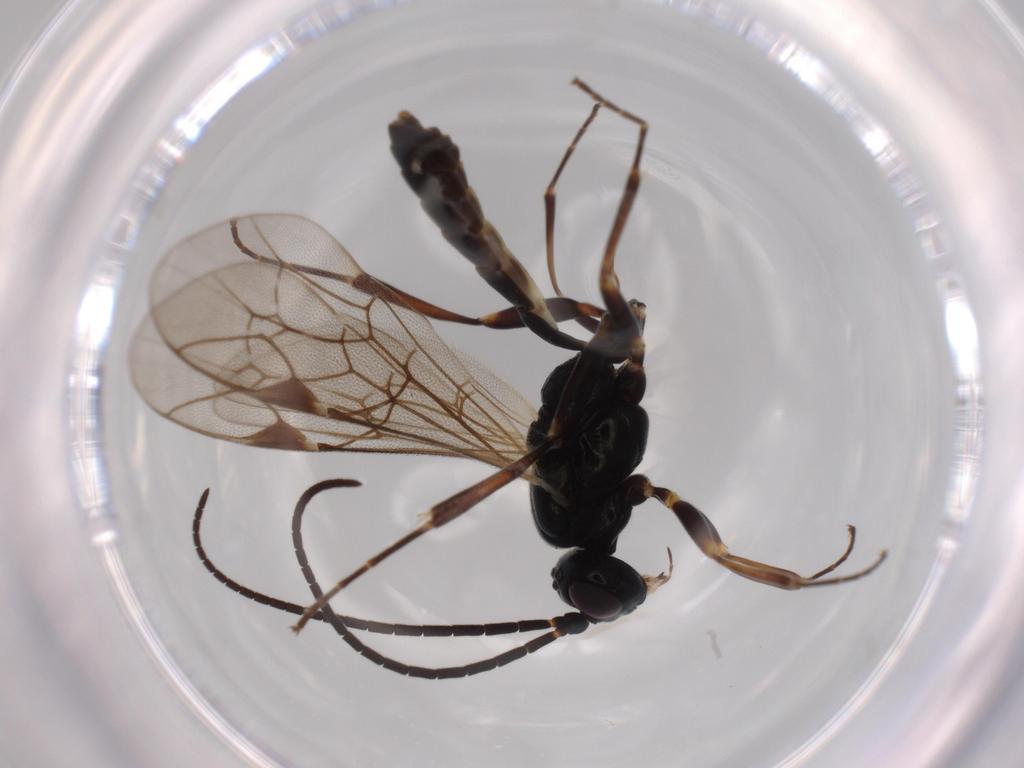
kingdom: Animalia
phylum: Arthropoda
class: Insecta
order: Hymenoptera
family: Ichneumonidae
